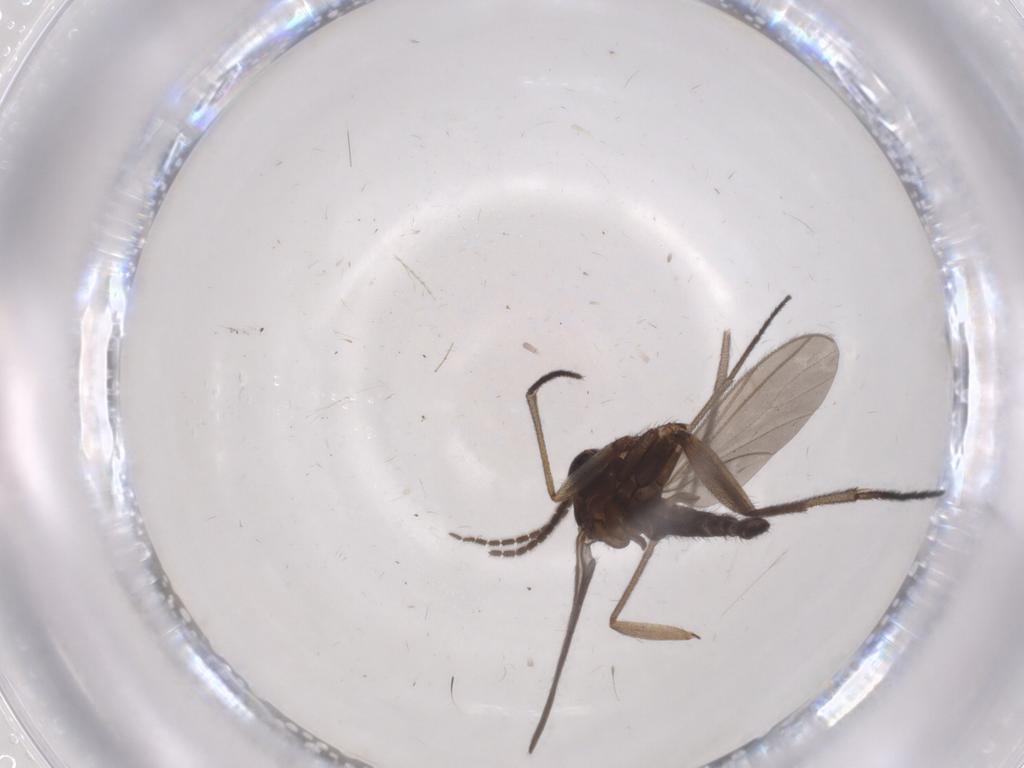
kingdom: Animalia
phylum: Arthropoda
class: Insecta
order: Diptera
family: Sciaridae
